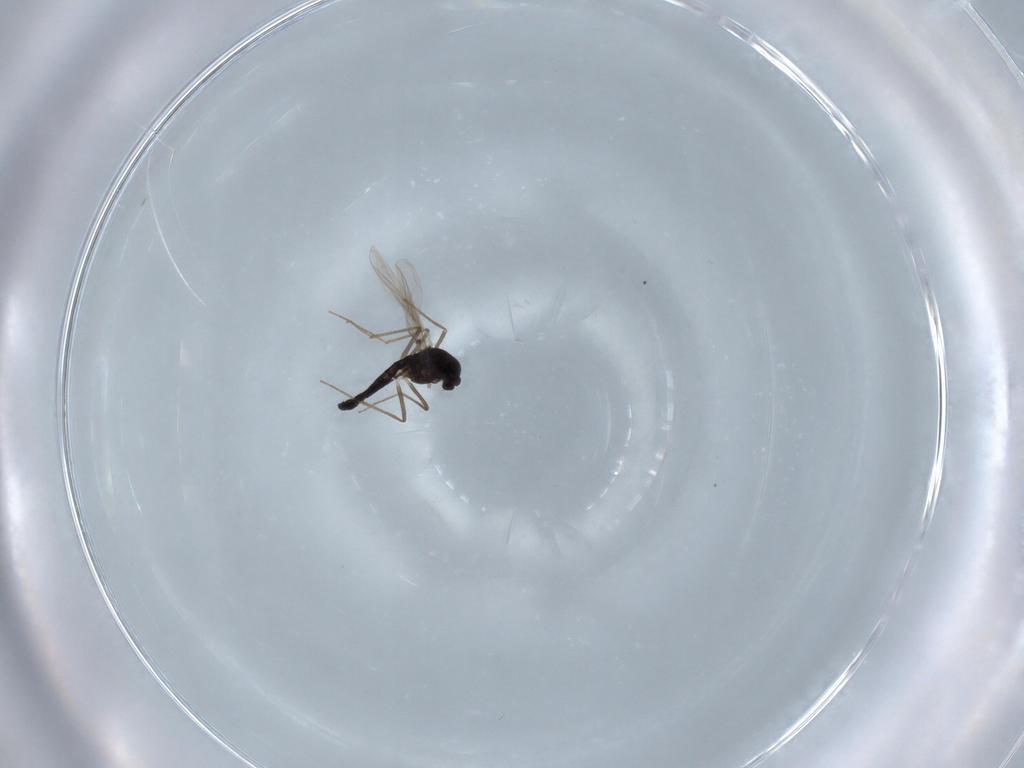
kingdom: Animalia
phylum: Arthropoda
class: Insecta
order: Diptera
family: Chironomidae
